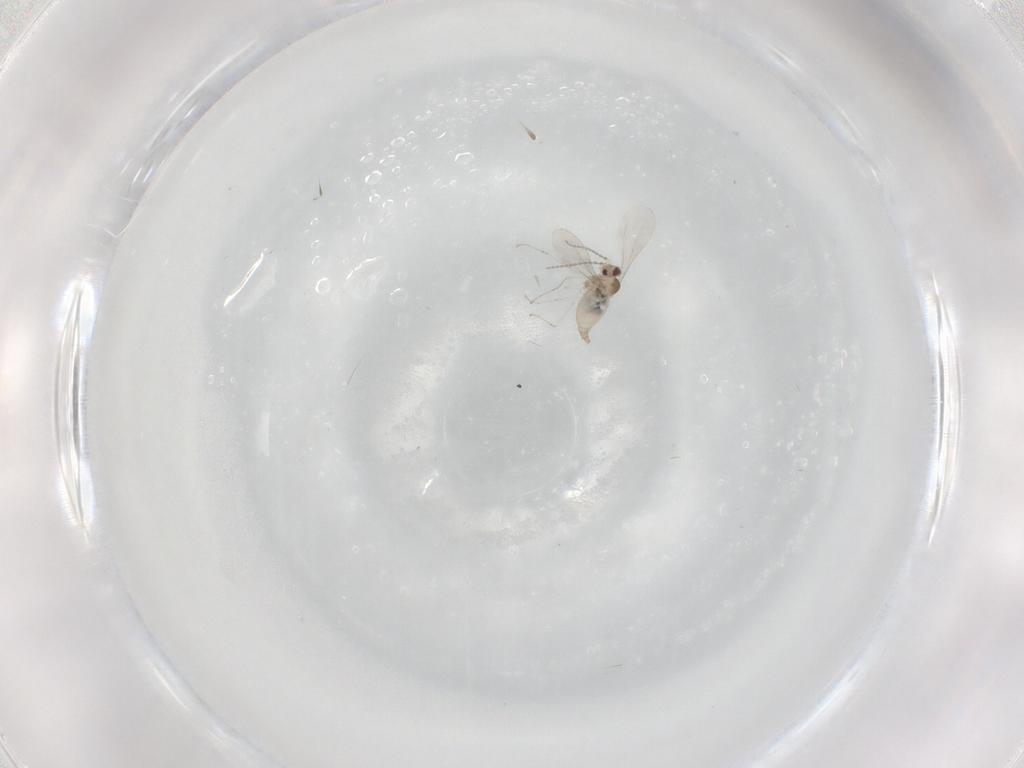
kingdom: Animalia
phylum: Arthropoda
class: Insecta
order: Diptera
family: Cecidomyiidae
